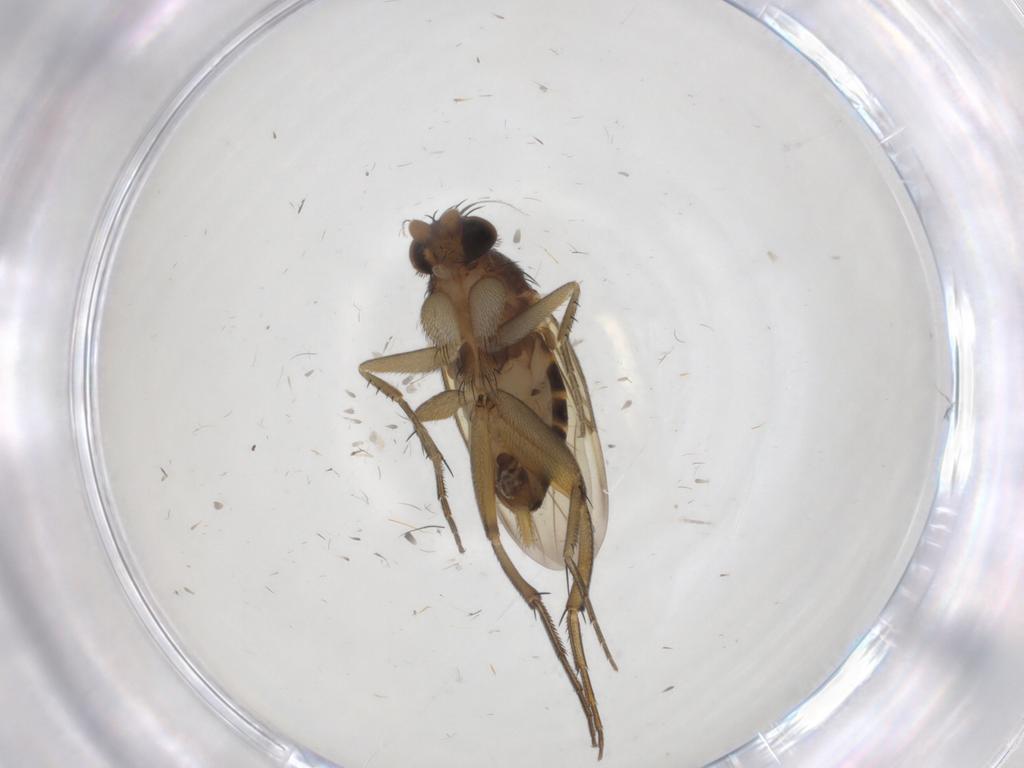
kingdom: Animalia
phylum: Arthropoda
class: Insecta
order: Diptera
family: Phoridae
